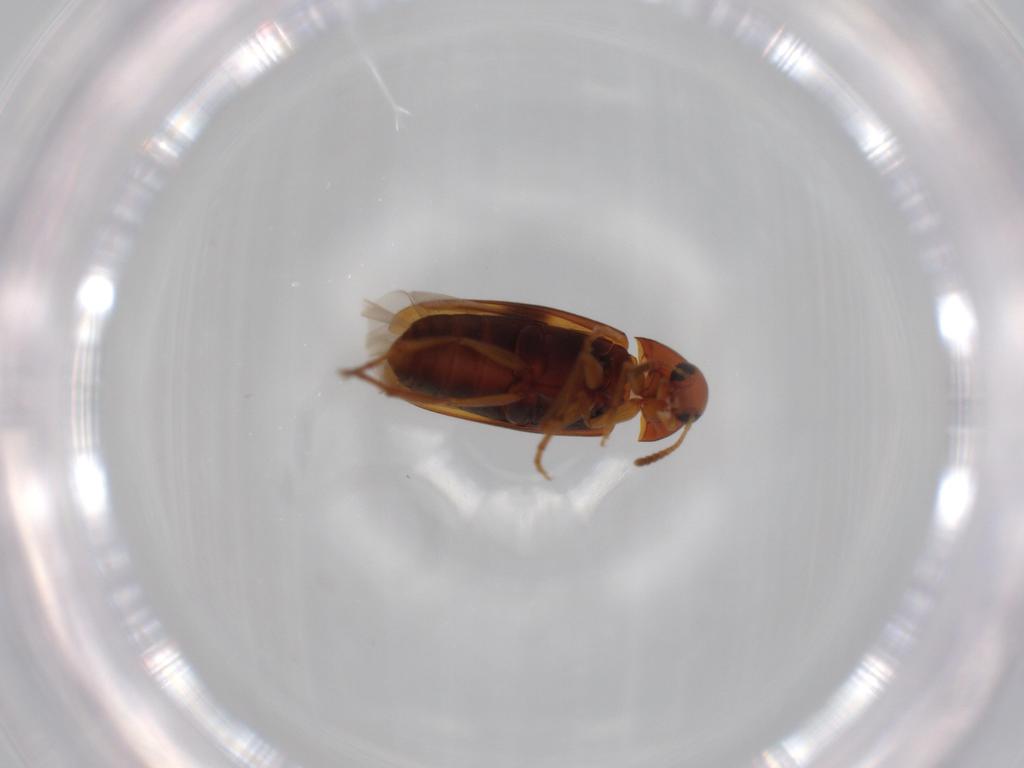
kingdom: Animalia
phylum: Arthropoda
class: Insecta
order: Coleoptera
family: Scraptiidae
